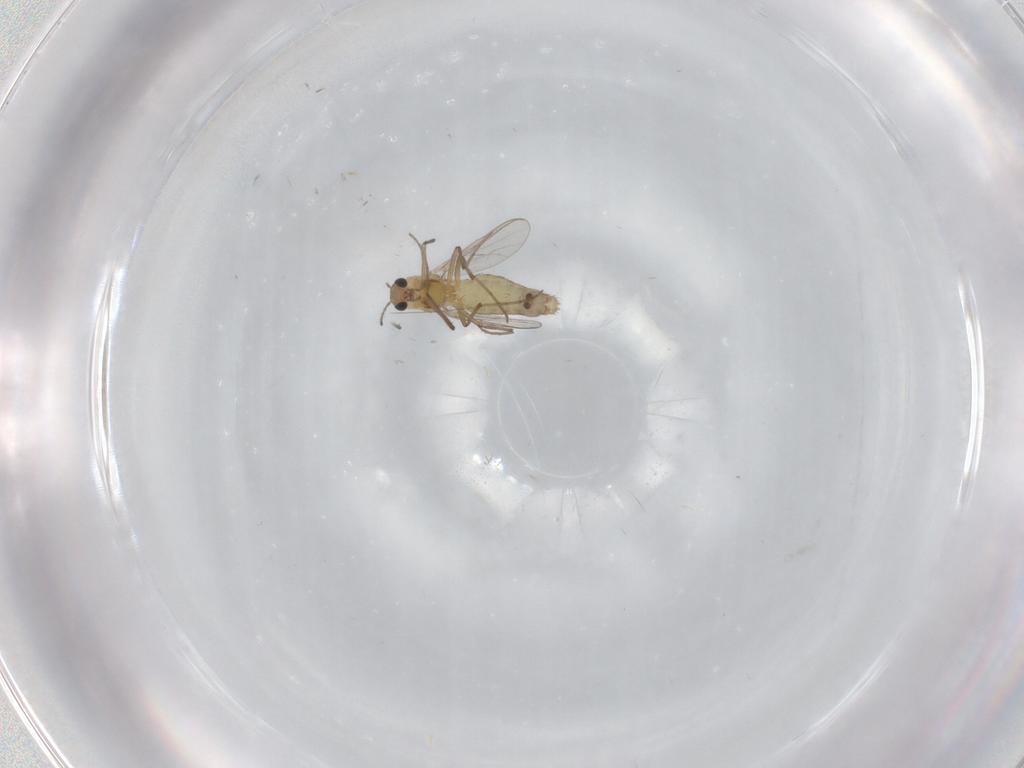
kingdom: Animalia
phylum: Arthropoda
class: Insecta
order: Diptera
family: Chironomidae
